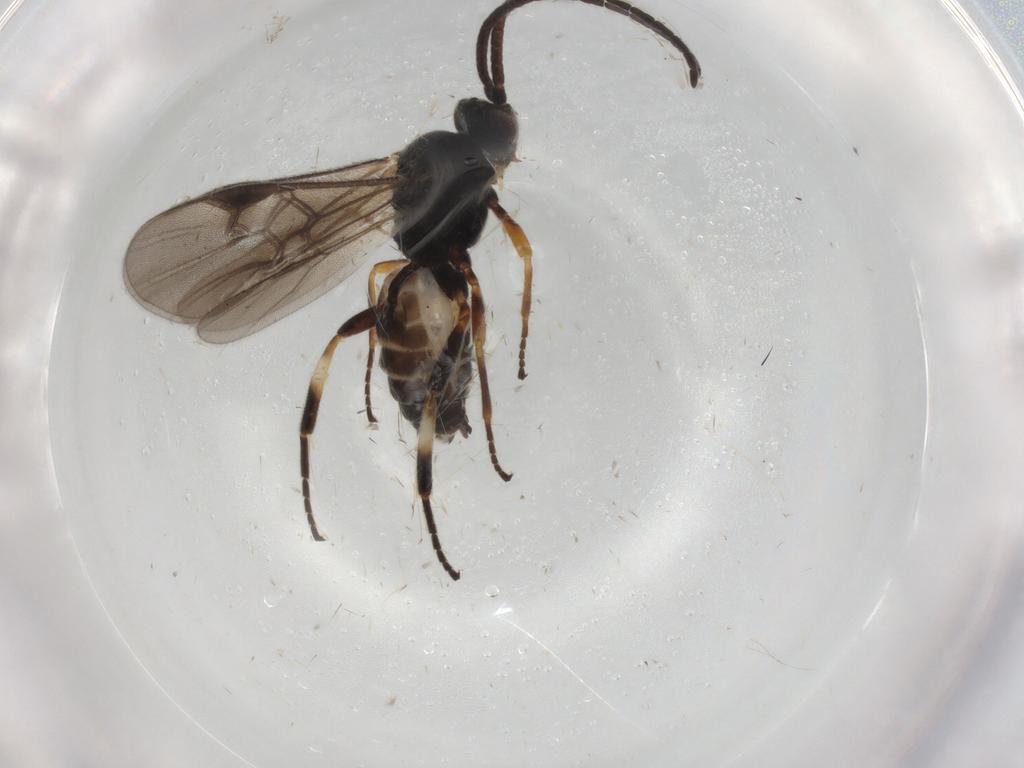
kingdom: Animalia
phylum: Arthropoda
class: Insecta
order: Hymenoptera
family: Braconidae
